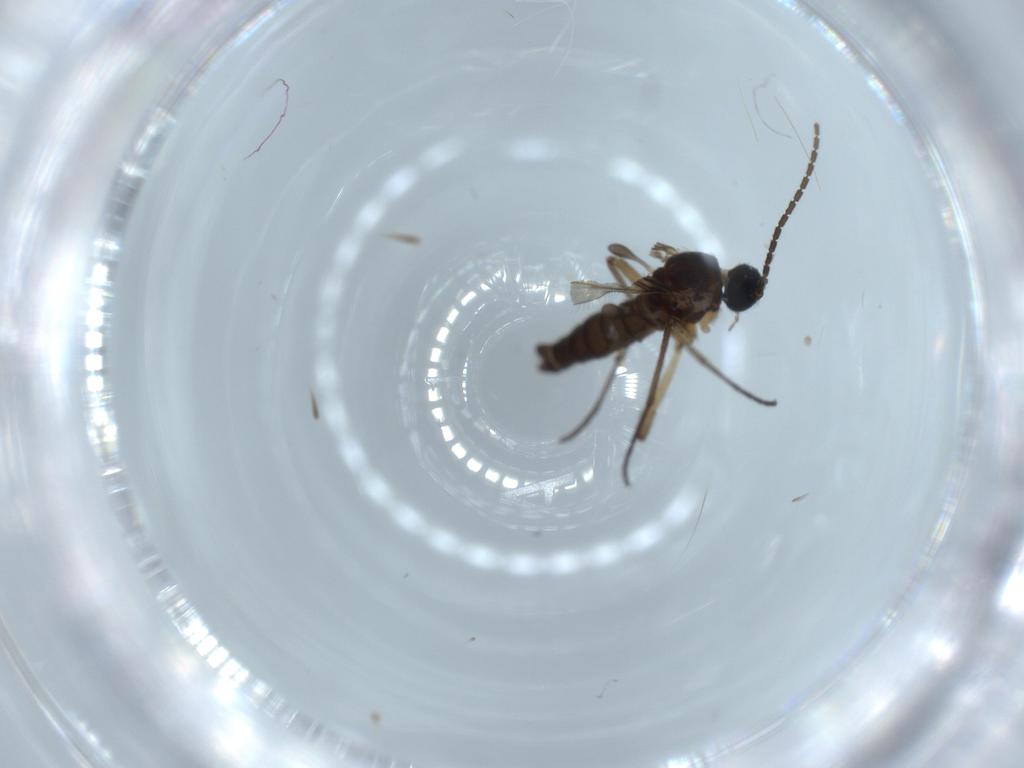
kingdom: Animalia
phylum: Arthropoda
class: Insecta
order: Diptera
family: Sciaridae
